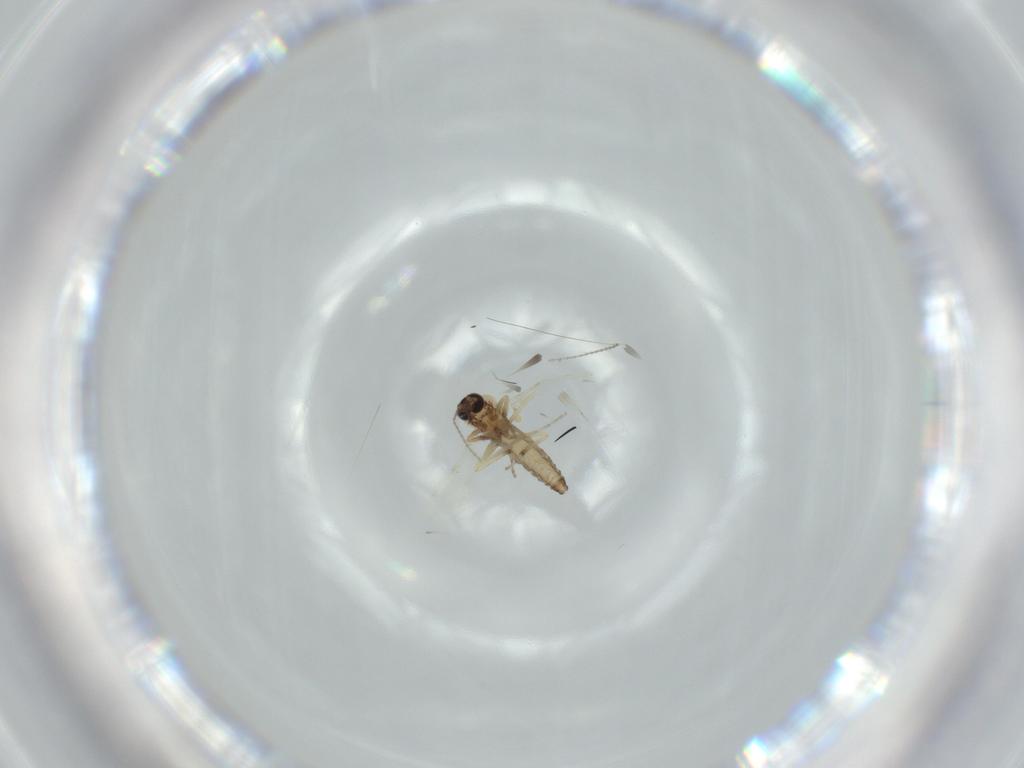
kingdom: Animalia
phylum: Arthropoda
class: Insecta
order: Diptera
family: Ceratopogonidae
